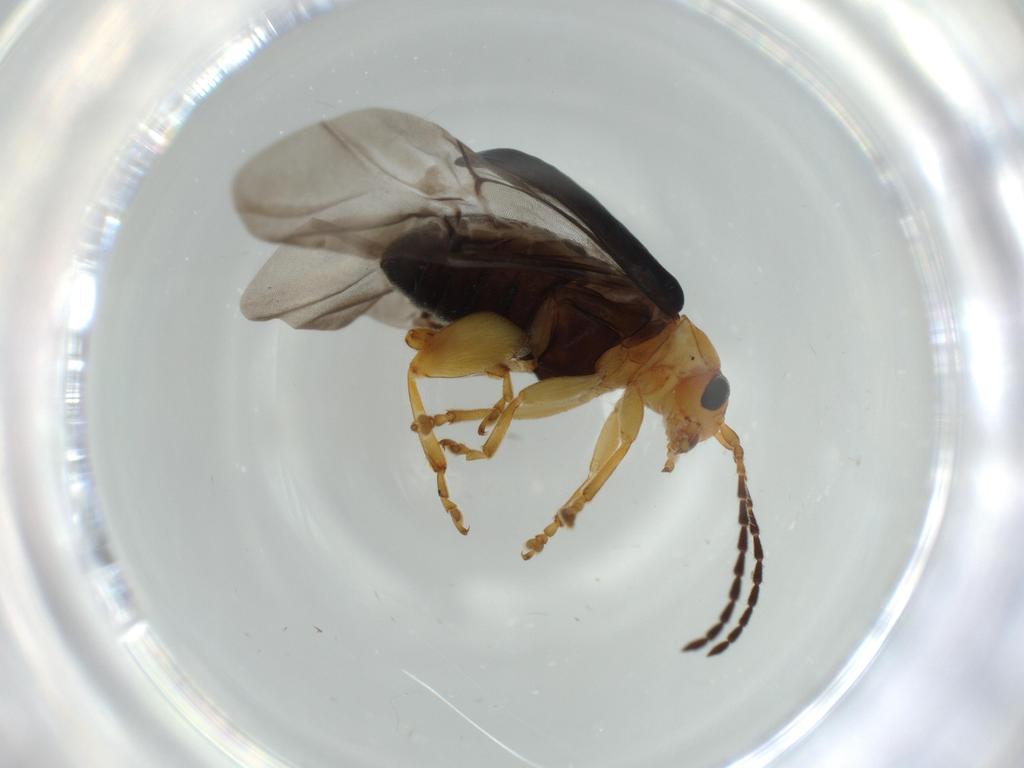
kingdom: Animalia
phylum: Arthropoda
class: Insecta
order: Coleoptera
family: Chrysomelidae
